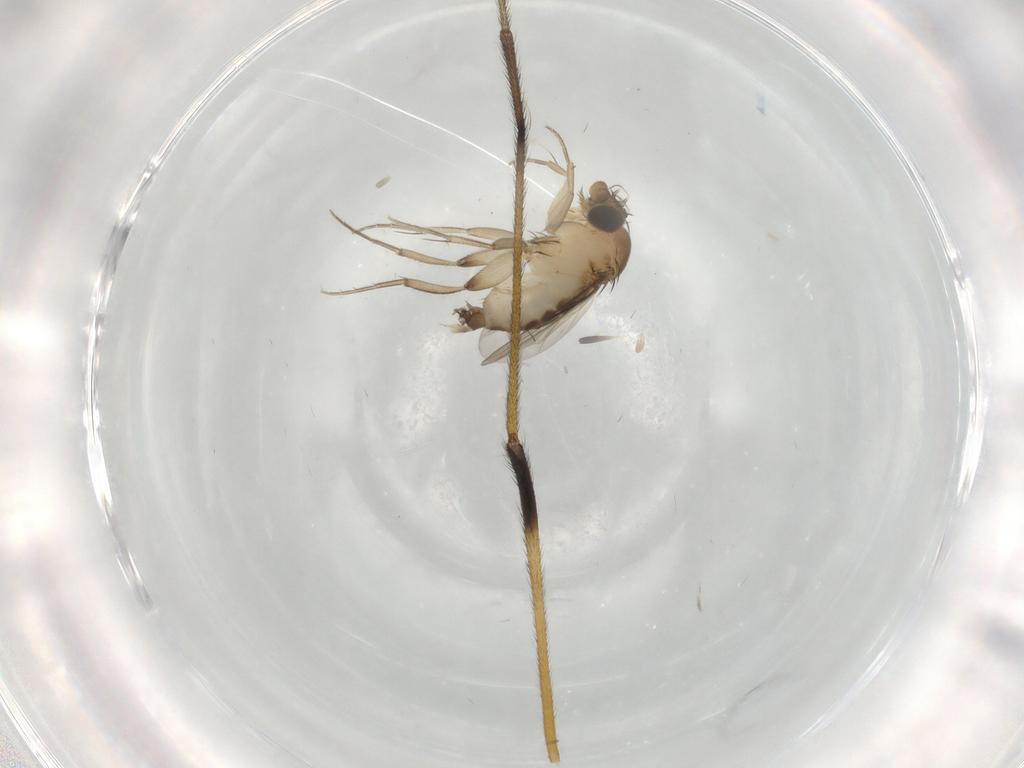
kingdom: Animalia
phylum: Arthropoda
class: Insecta
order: Diptera
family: Phoridae
